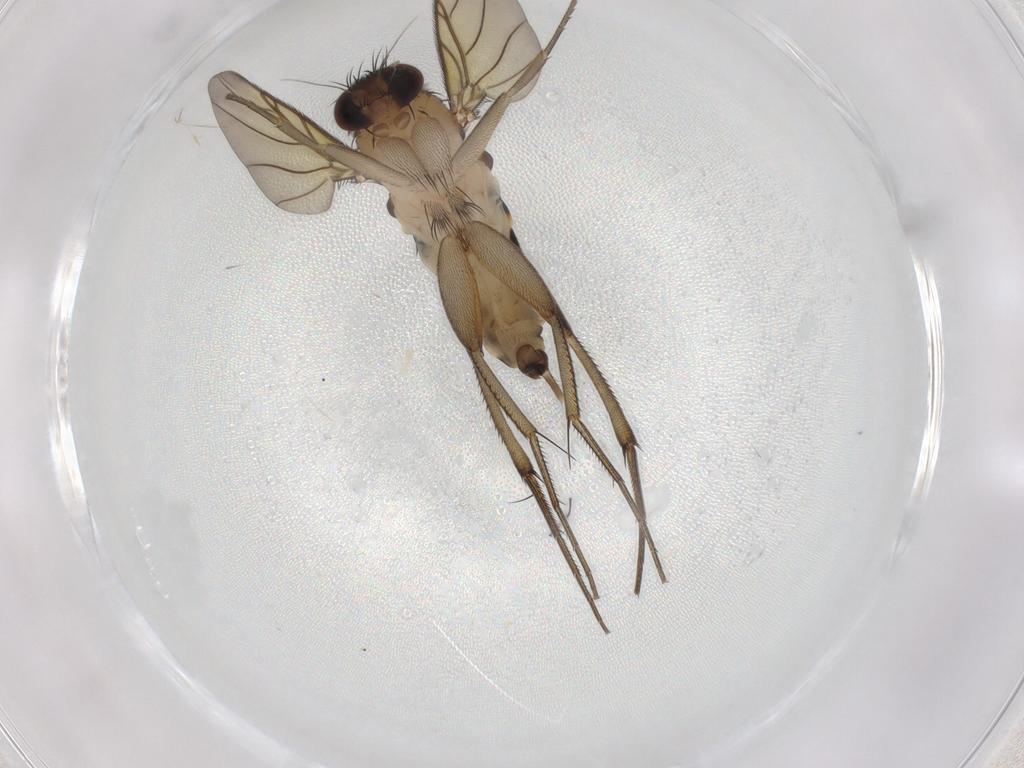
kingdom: Animalia
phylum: Arthropoda
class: Insecta
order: Diptera
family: Phoridae
